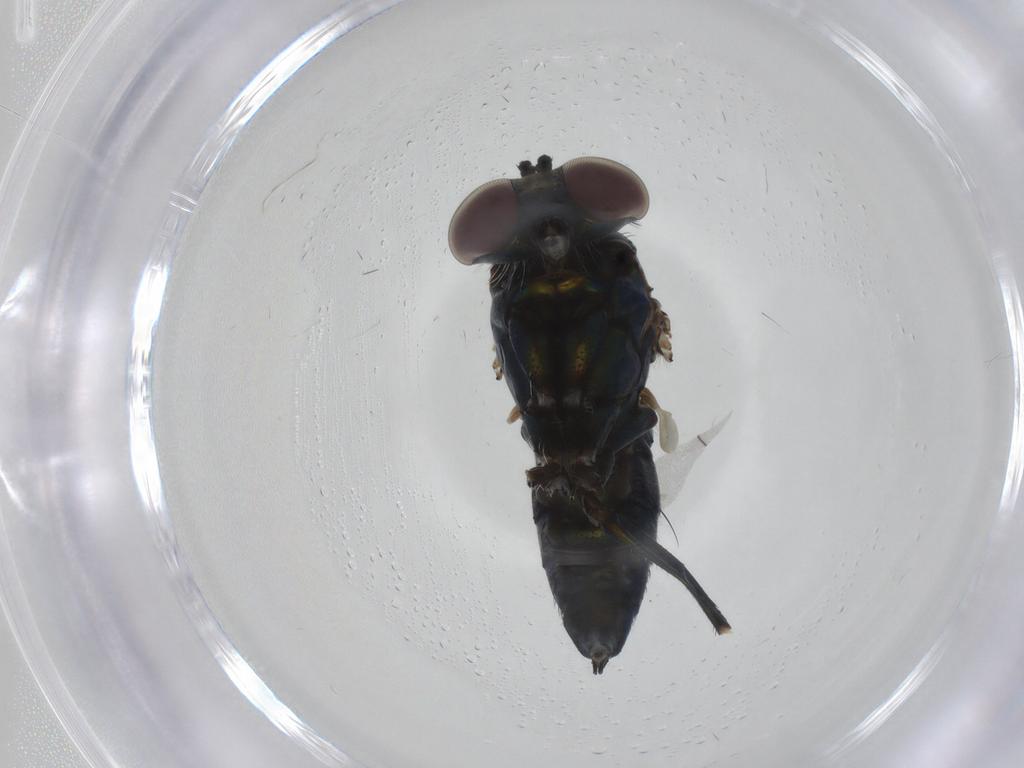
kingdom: Animalia
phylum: Arthropoda
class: Insecta
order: Diptera
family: Dolichopodidae
